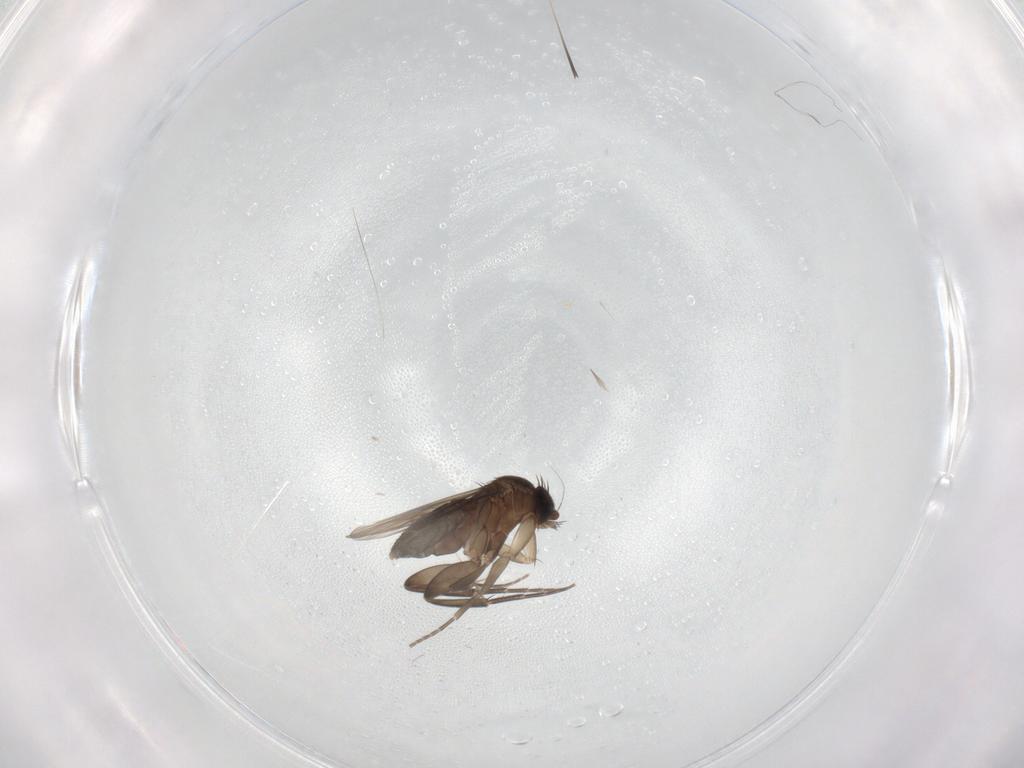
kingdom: Animalia
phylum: Arthropoda
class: Insecta
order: Diptera
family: Phoridae
